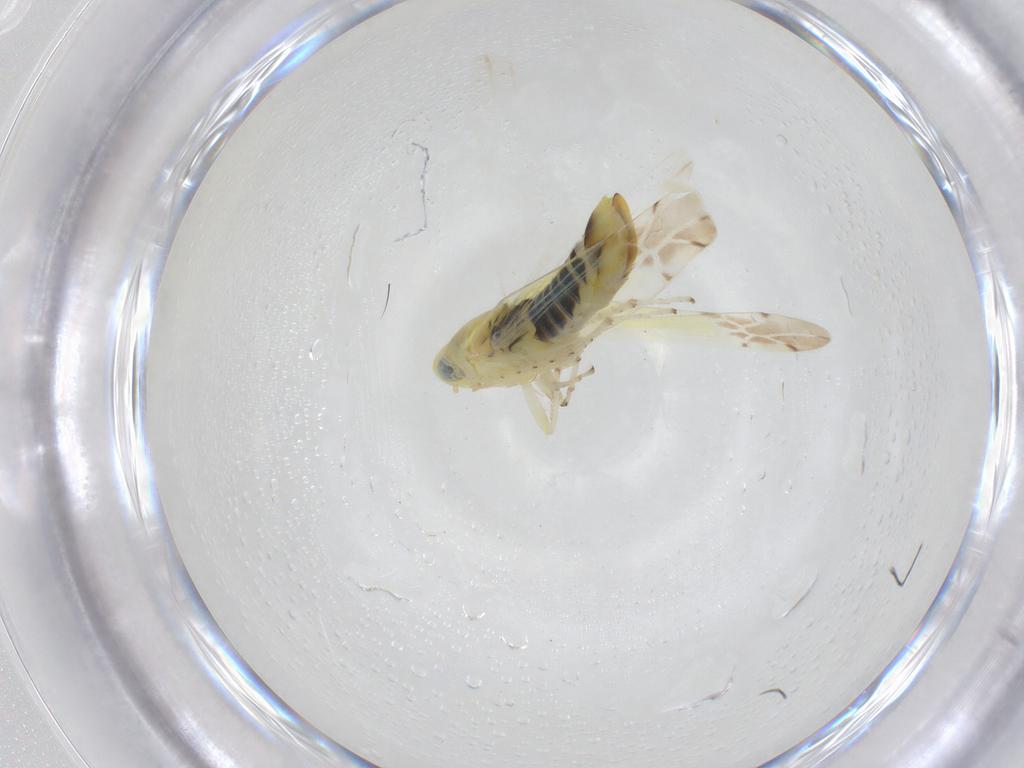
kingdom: Animalia
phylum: Arthropoda
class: Insecta
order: Hemiptera
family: Cicadellidae
